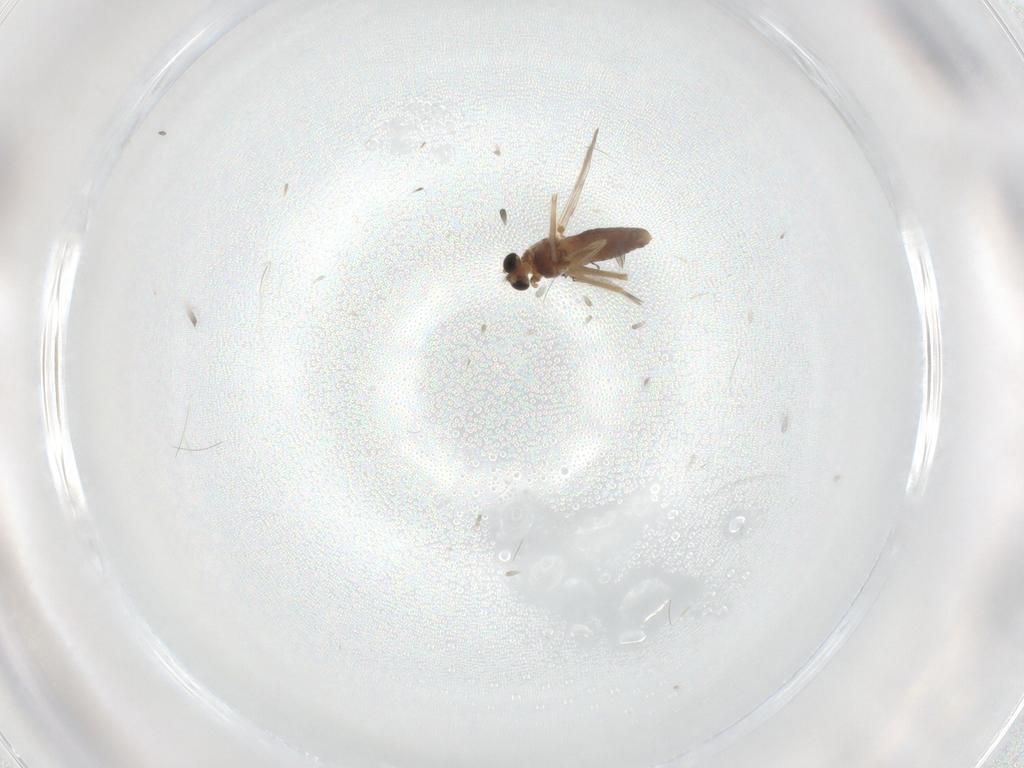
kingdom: Animalia
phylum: Arthropoda
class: Insecta
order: Diptera
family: Chironomidae
